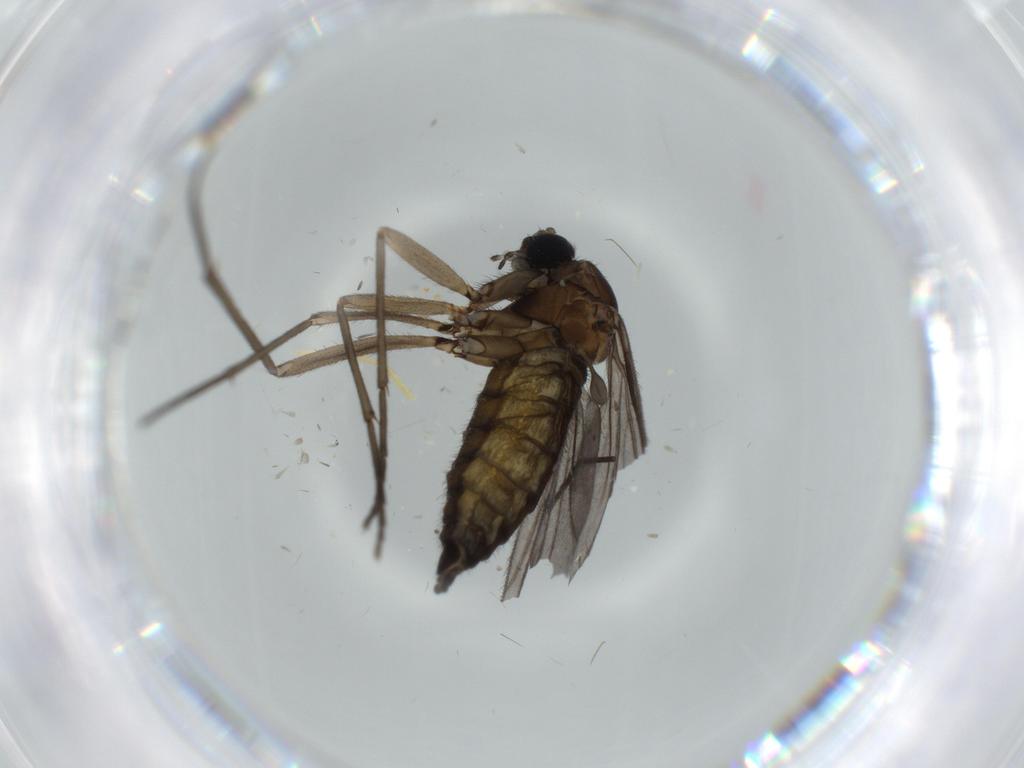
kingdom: Animalia
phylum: Arthropoda
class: Insecta
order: Diptera
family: Sciaridae
